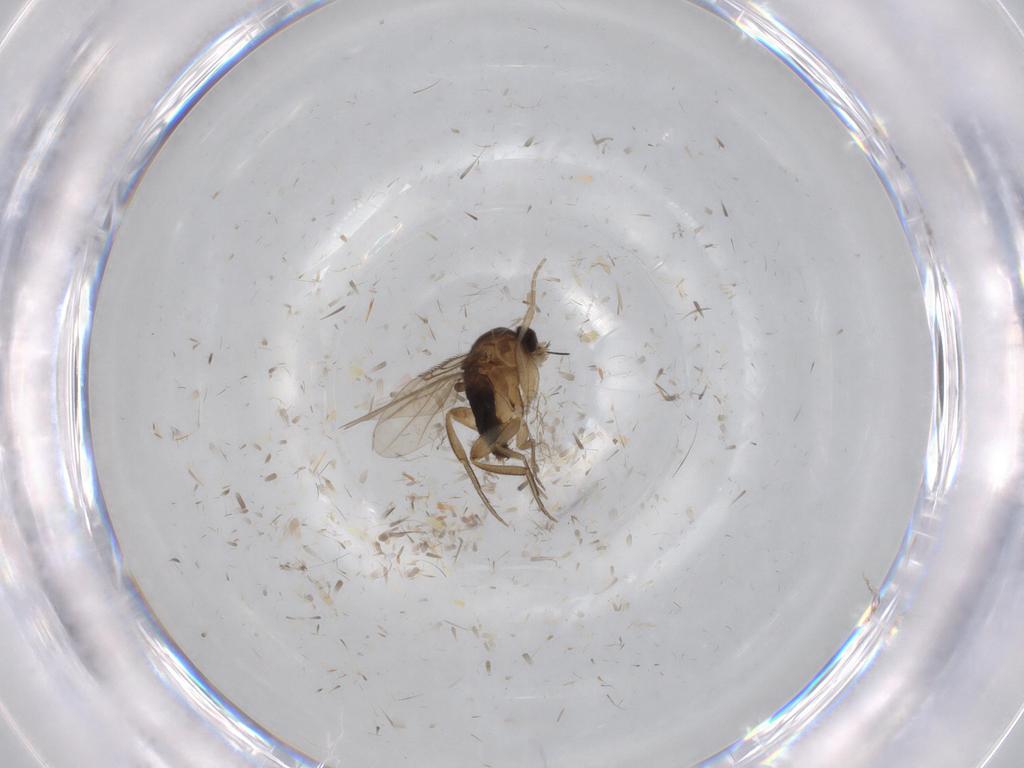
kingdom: Animalia
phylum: Arthropoda
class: Insecta
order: Diptera
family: Phoridae
